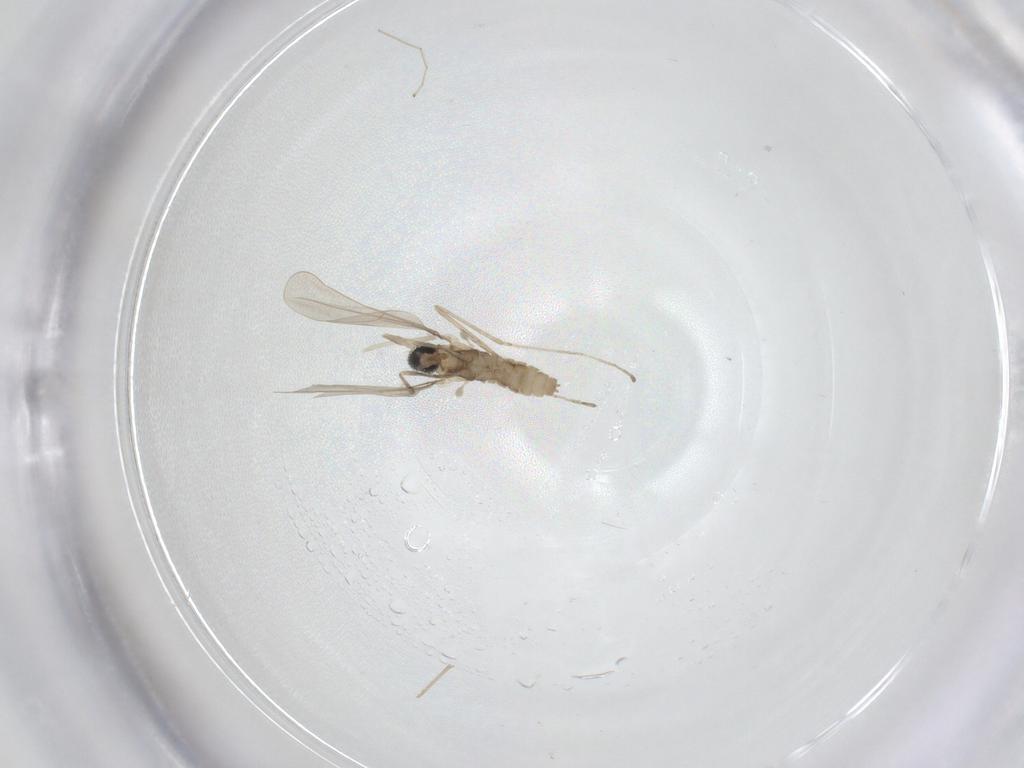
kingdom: Animalia
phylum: Arthropoda
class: Insecta
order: Diptera
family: Cecidomyiidae
